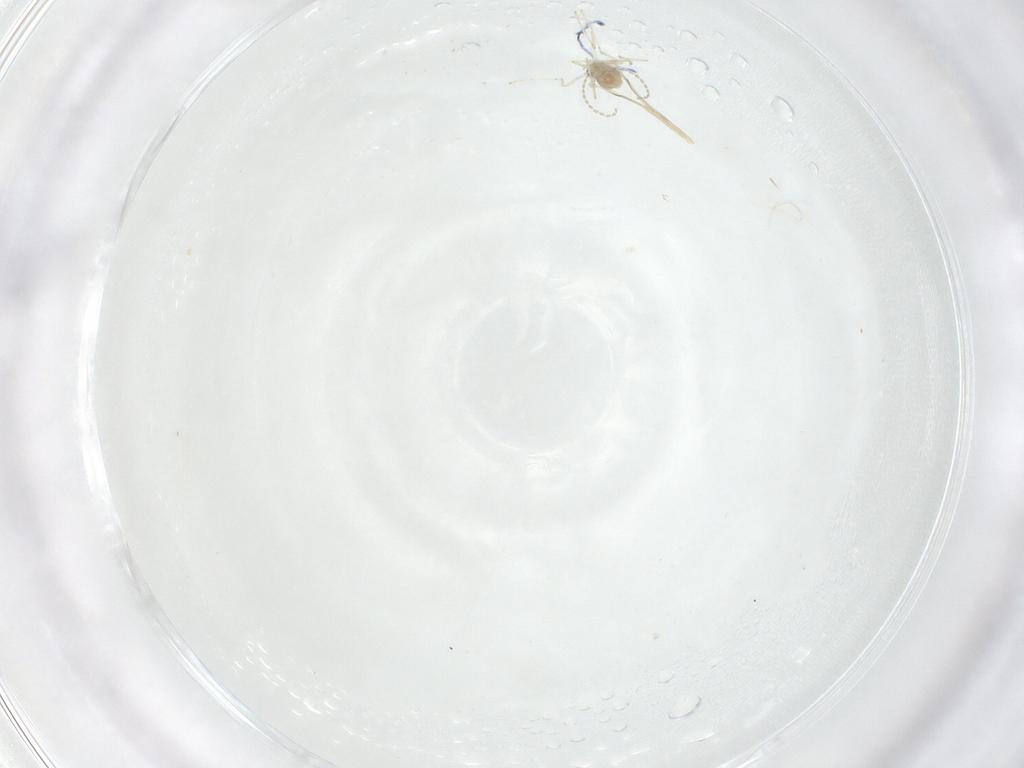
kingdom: Animalia
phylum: Arthropoda
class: Insecta
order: Diptera
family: Cecidomyiidae
